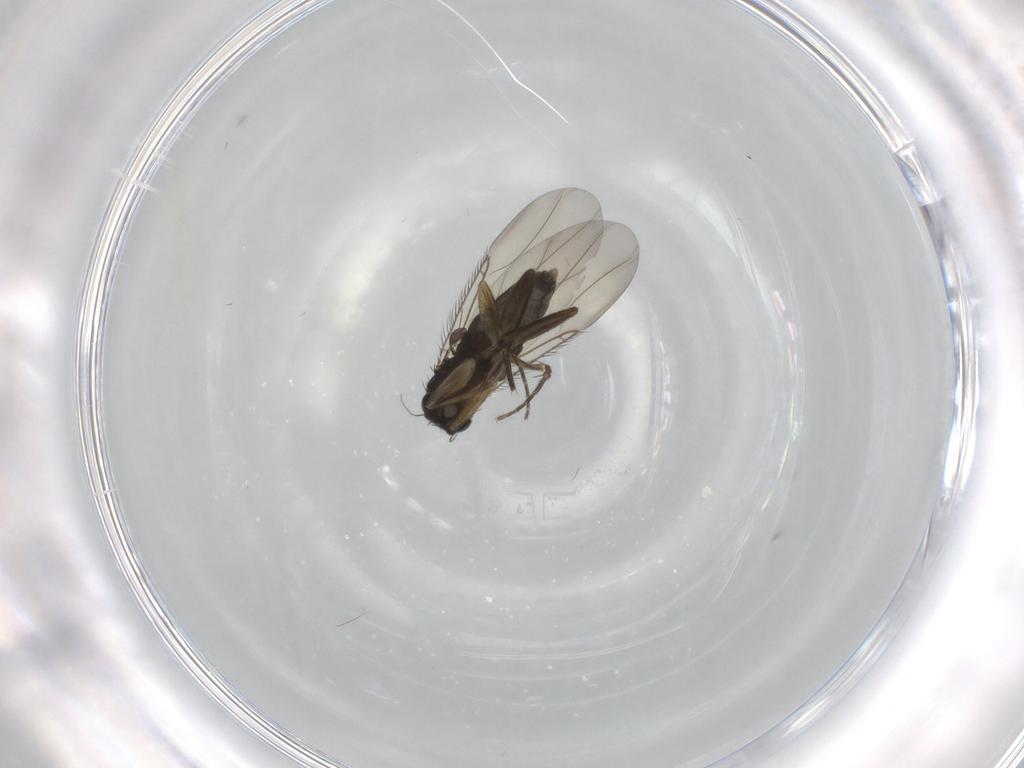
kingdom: Animalia
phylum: Arthropoda
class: Insecta
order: Diptera
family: Phoridae
